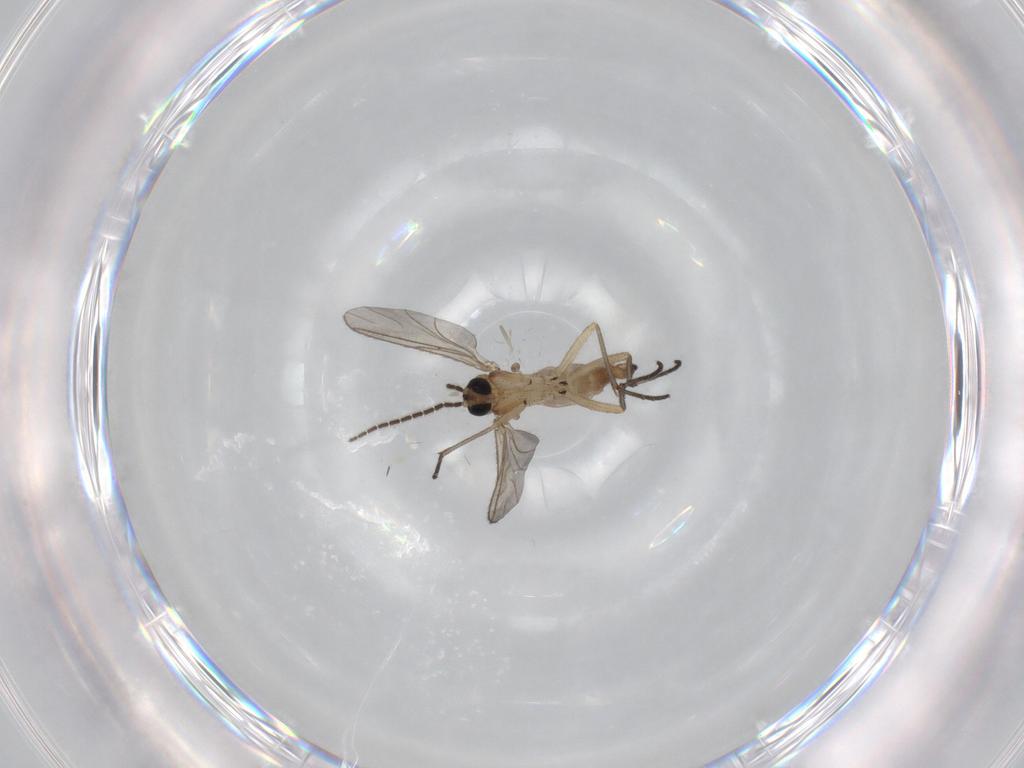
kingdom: Animalia
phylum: Arthropoda
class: Insecta
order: Diptera
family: Sciaridae
